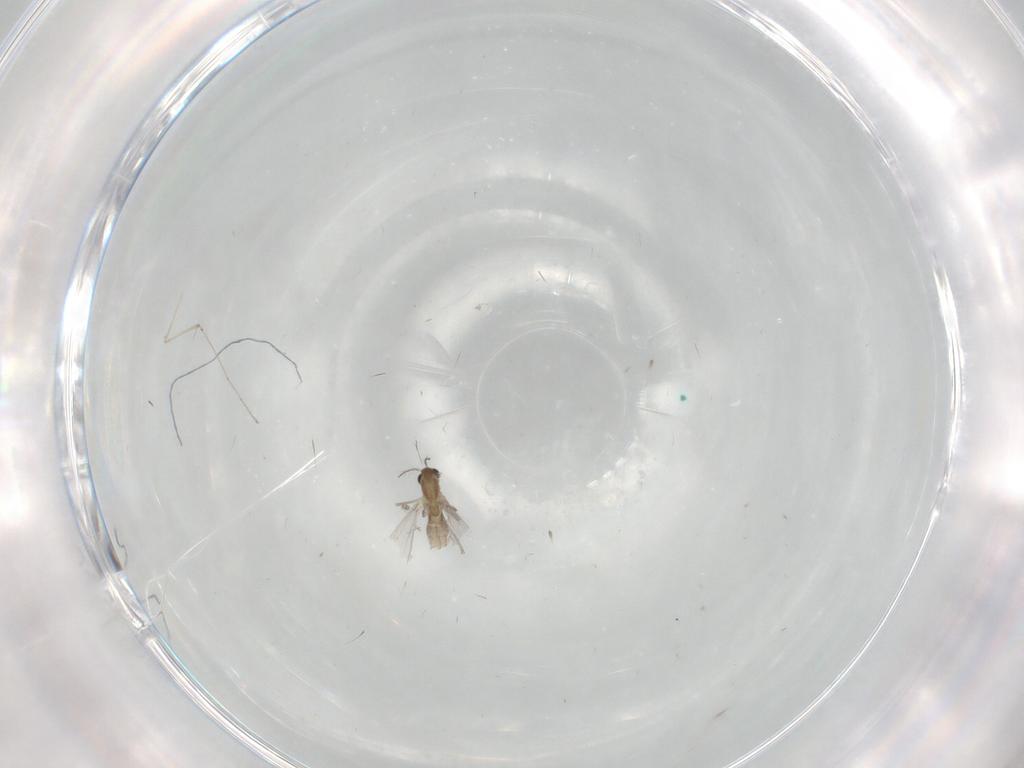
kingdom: Animalia
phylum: Arthropoda
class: Insecta
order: Diptera
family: Chironomidae
